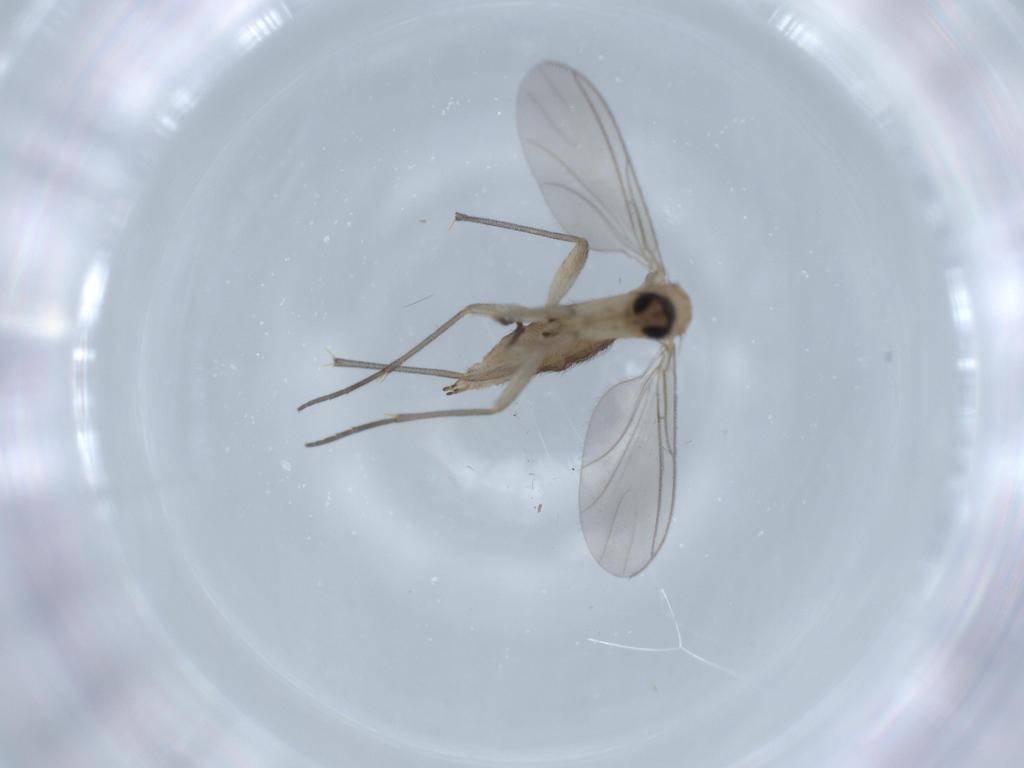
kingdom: Animalia
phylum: Arthropoda
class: Insecta
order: Diptera
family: Sciaridae
